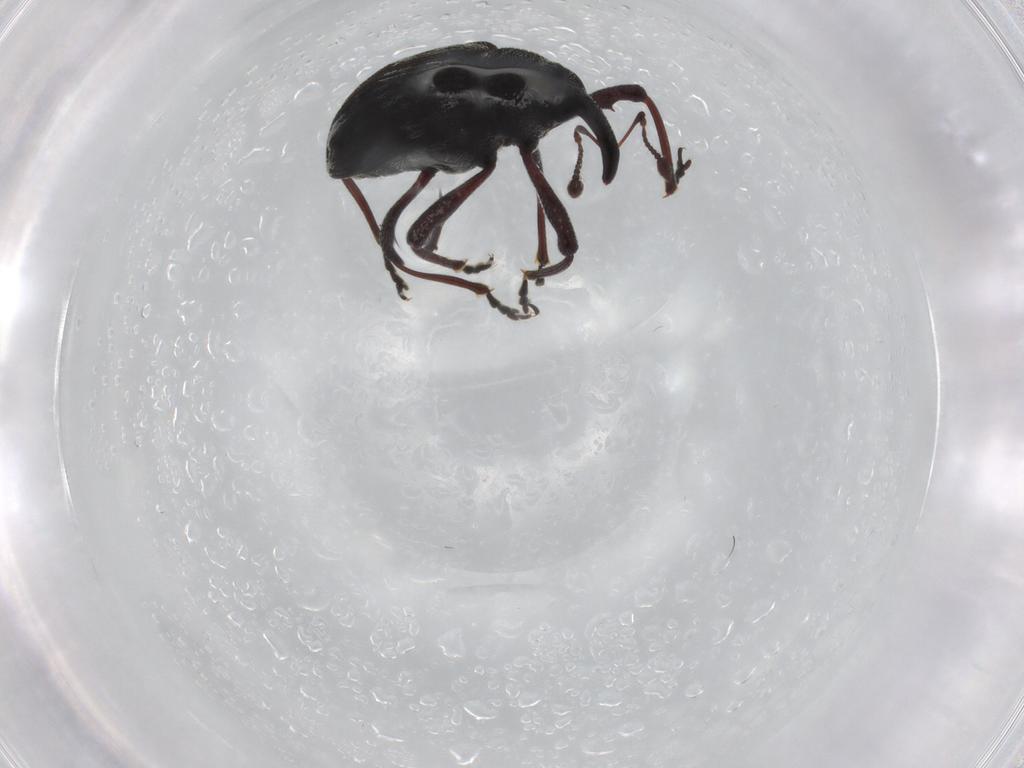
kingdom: Animalia
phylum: Arthropoda
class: Insecta
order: Coleoptera
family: Curculionidae
